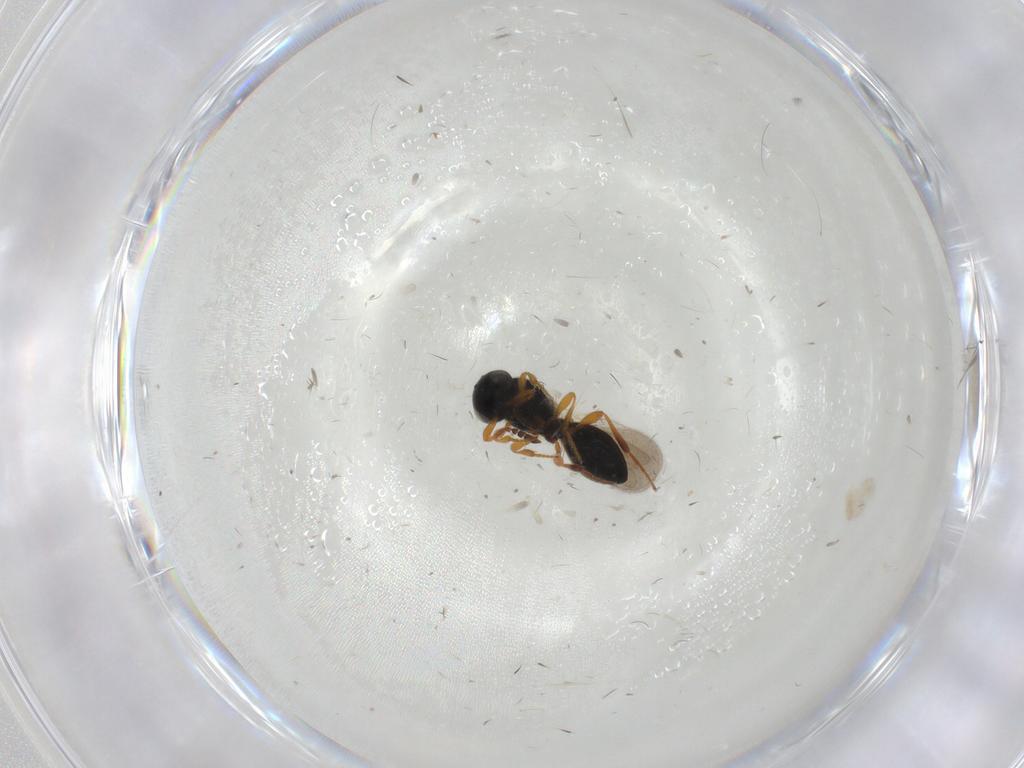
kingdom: Animalia
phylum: Arthropoda
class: Insecta
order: Hymenoptera
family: Platygastridae
